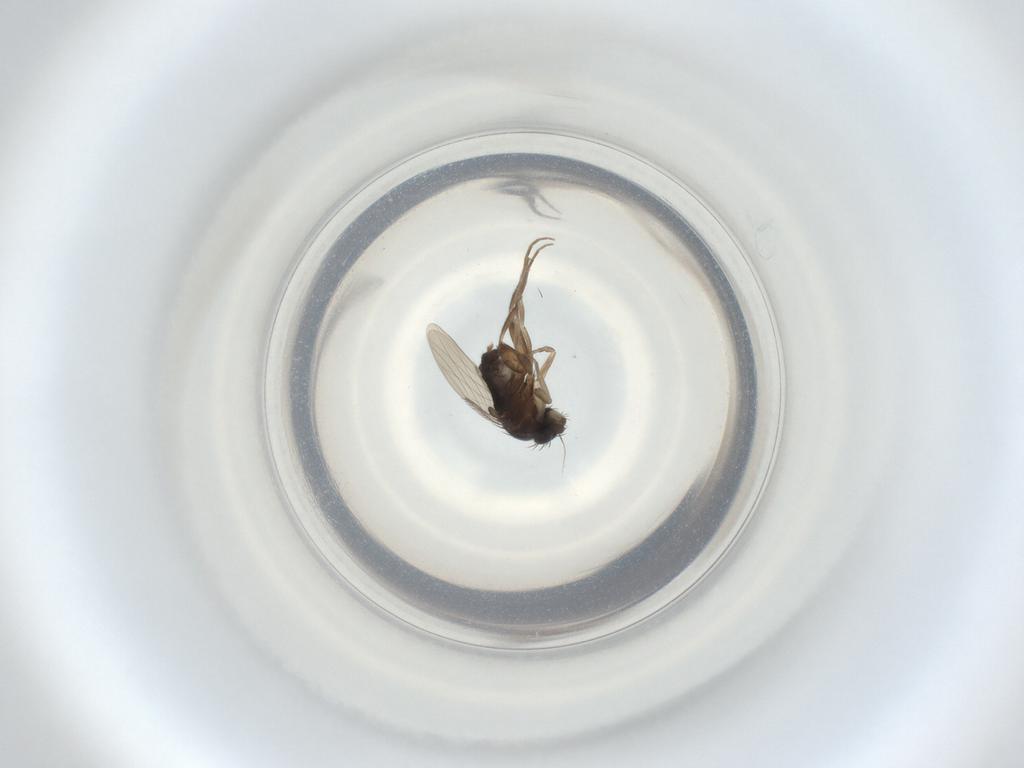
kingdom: Animalia
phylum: Arthropoda
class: Insecta
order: Diptera
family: Phoridae
